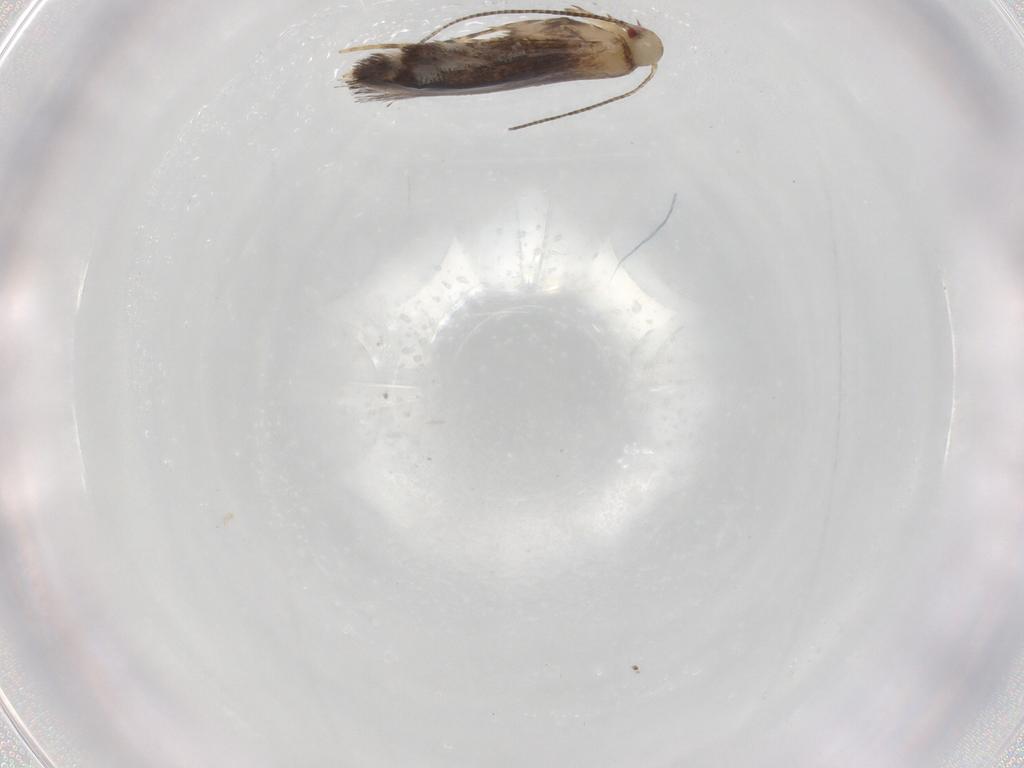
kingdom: Animalia
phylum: Arthropoda
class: Insecta
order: Lepidoptera
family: Gracillariidae
